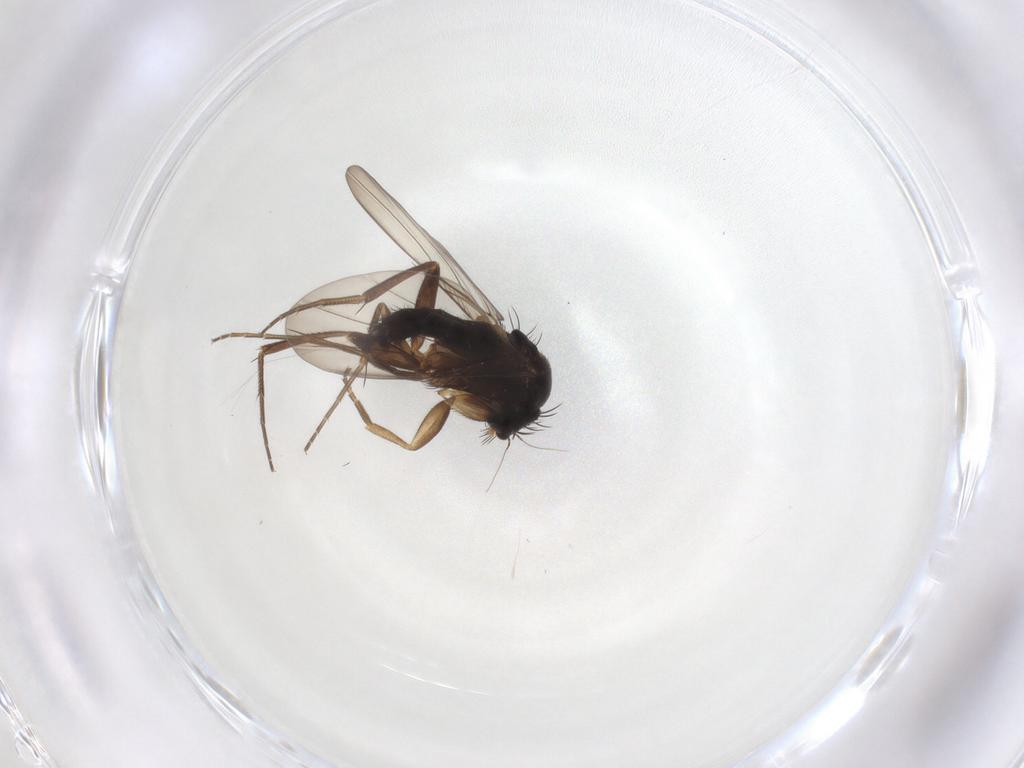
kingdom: Animalia
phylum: Arthropoda
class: Insecta
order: Diptera
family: Phoridae
